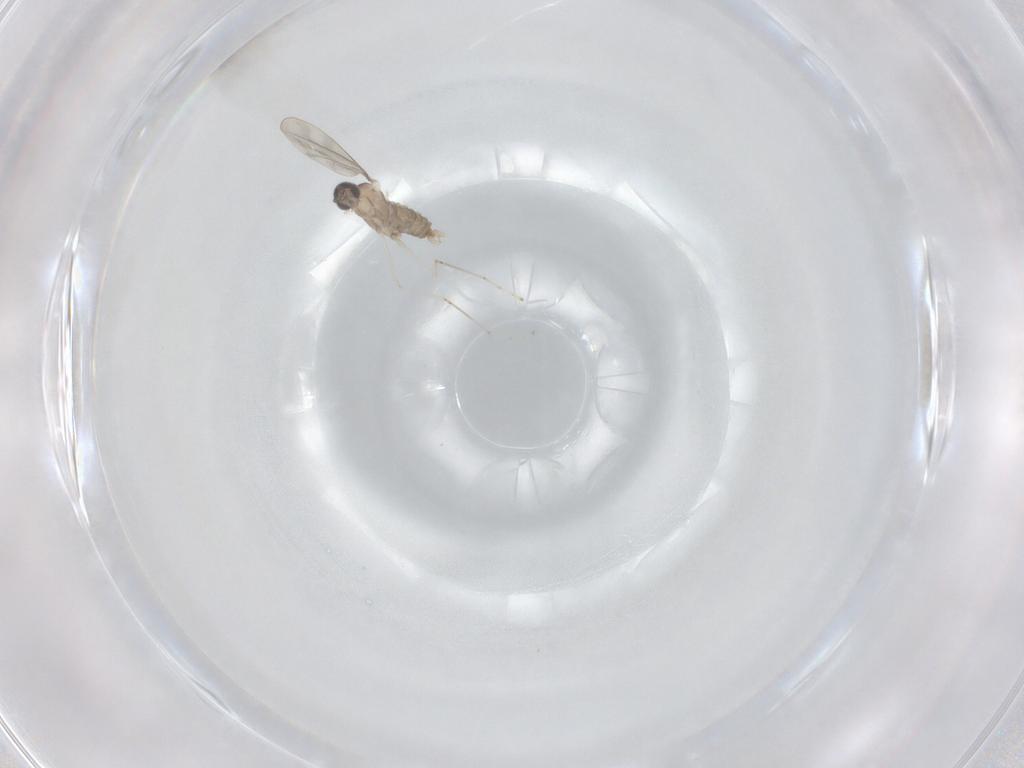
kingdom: Animalia
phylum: Arthropoda
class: Insecta
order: Diptera
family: Cecidomyiidae
